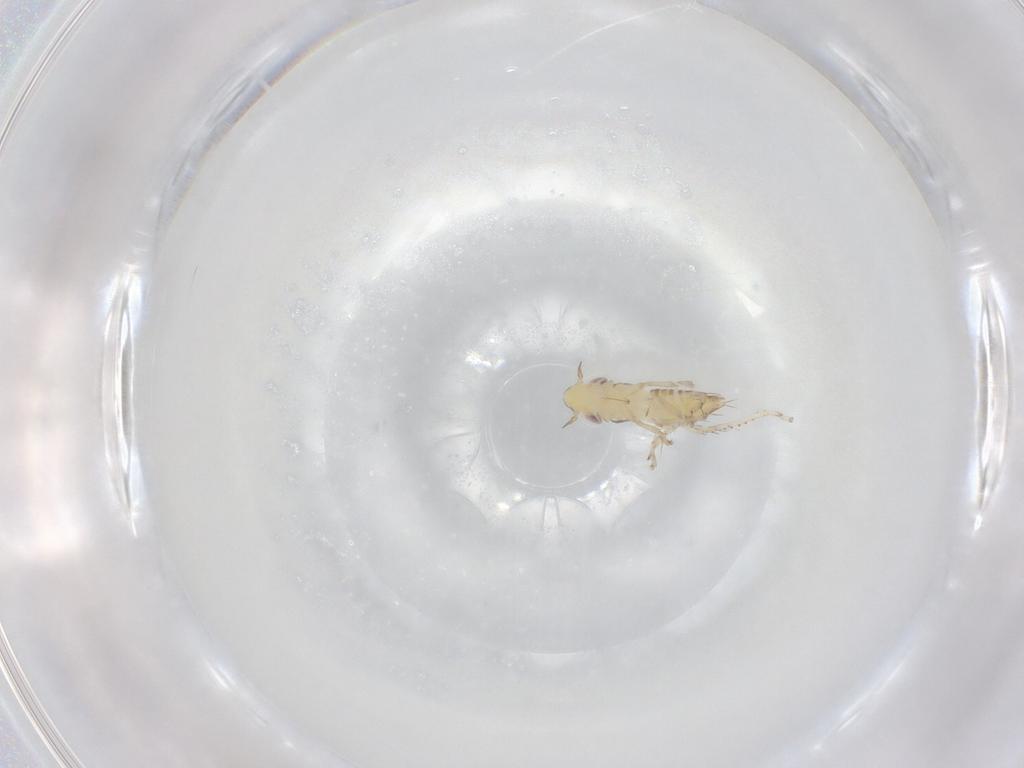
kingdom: Animalia
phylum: Arthropoda
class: Insecta
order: Hemiptera
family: Cicadellidae
